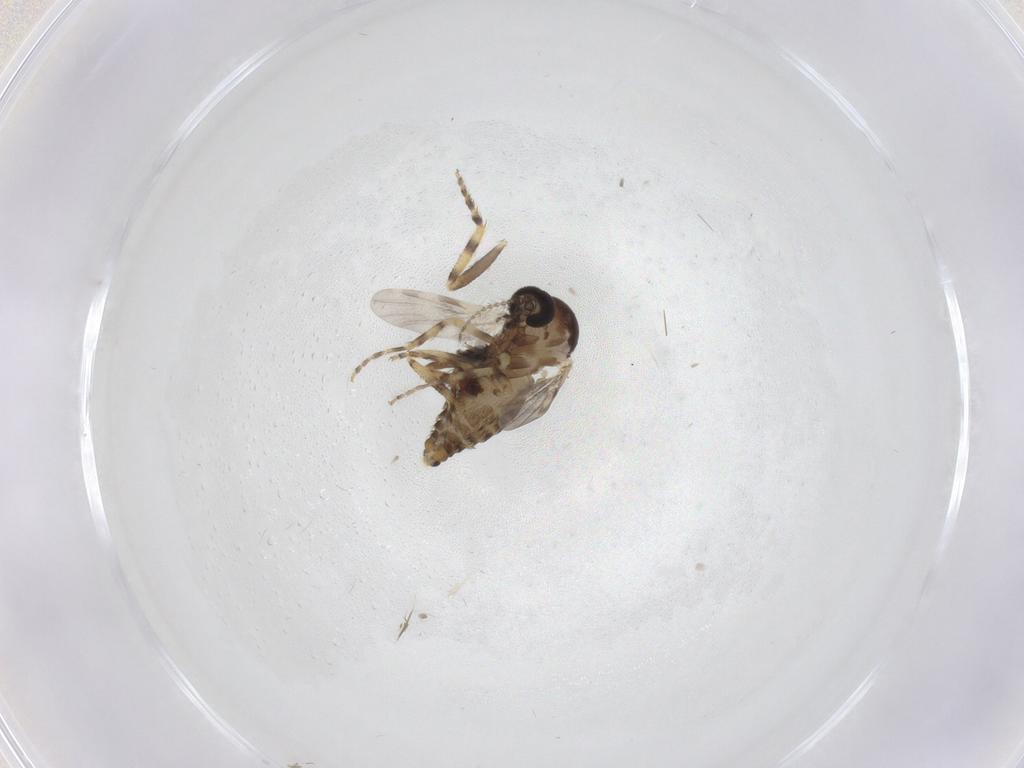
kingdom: Animalia
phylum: Arthropoda
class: Insecta
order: Diptera
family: Ceratopogonidae
